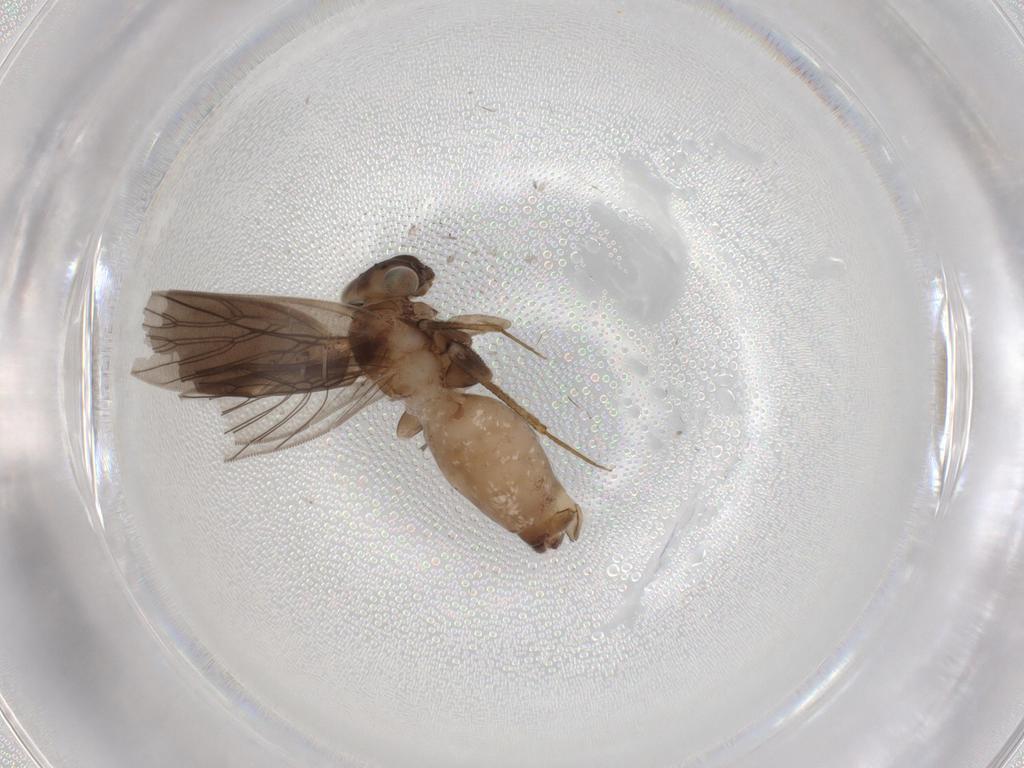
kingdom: Animalia
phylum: Arthropoda
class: Insecta
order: Psocodea
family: Lepidopsocidae
